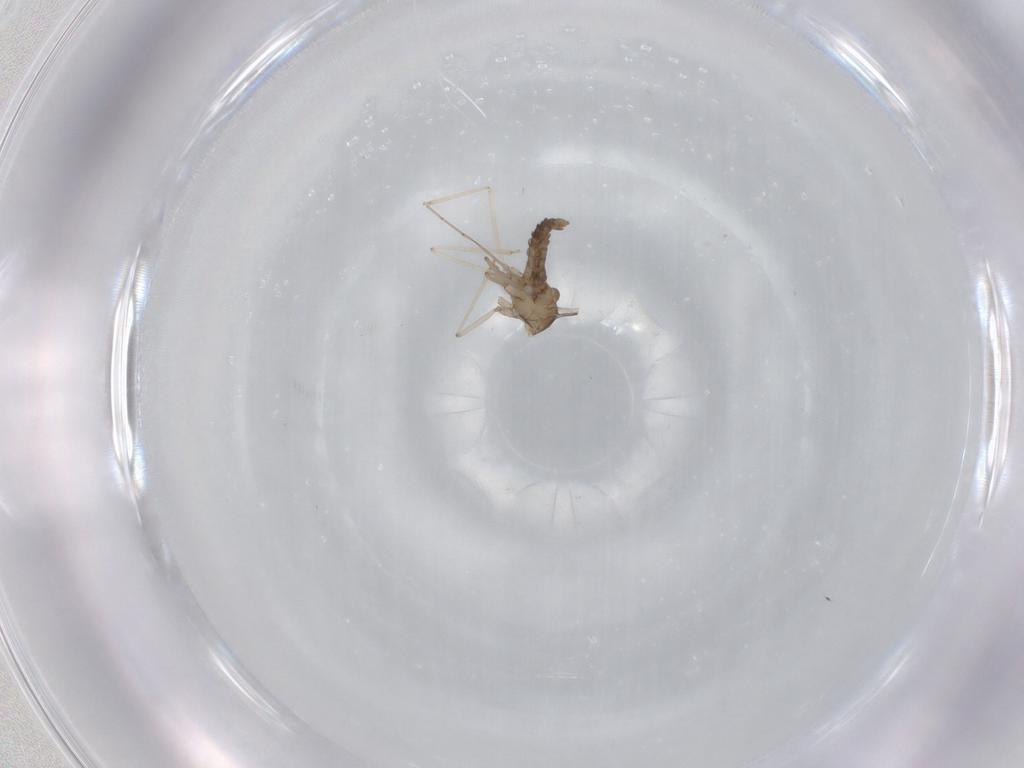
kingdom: Animalia
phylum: Arthropoda
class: Insecta
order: Diptera
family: Cecidomyiidae
